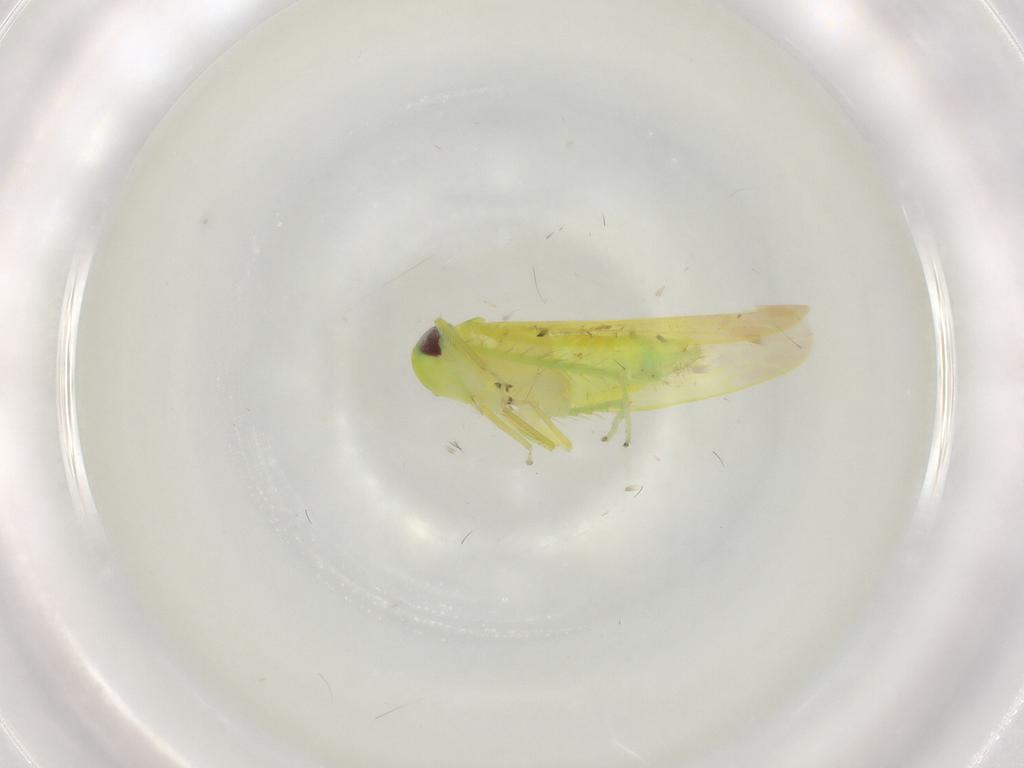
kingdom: Animalia
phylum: Arthropoda
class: Insecta
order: Hemiptera
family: Cicadellidae
